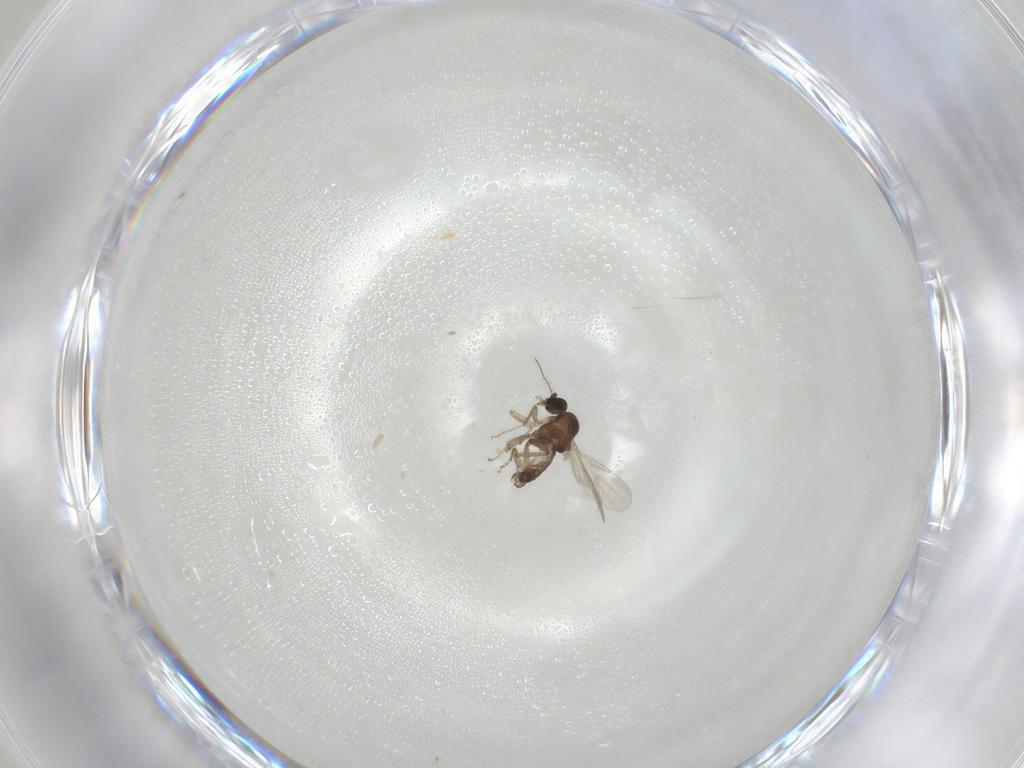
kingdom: Animalia
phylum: Arthropoda
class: Insecta
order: Diptera
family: Ceratopogonidae
